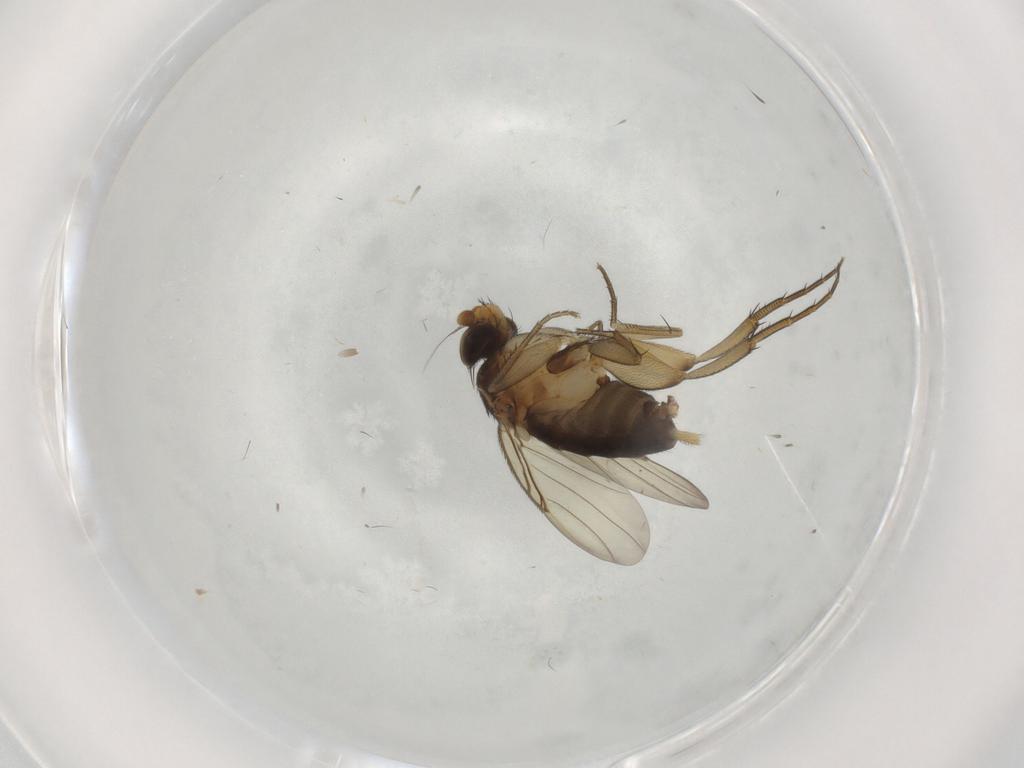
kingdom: Animalia
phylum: Arthropoda
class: Insecta
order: Diptera
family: Phoridae
